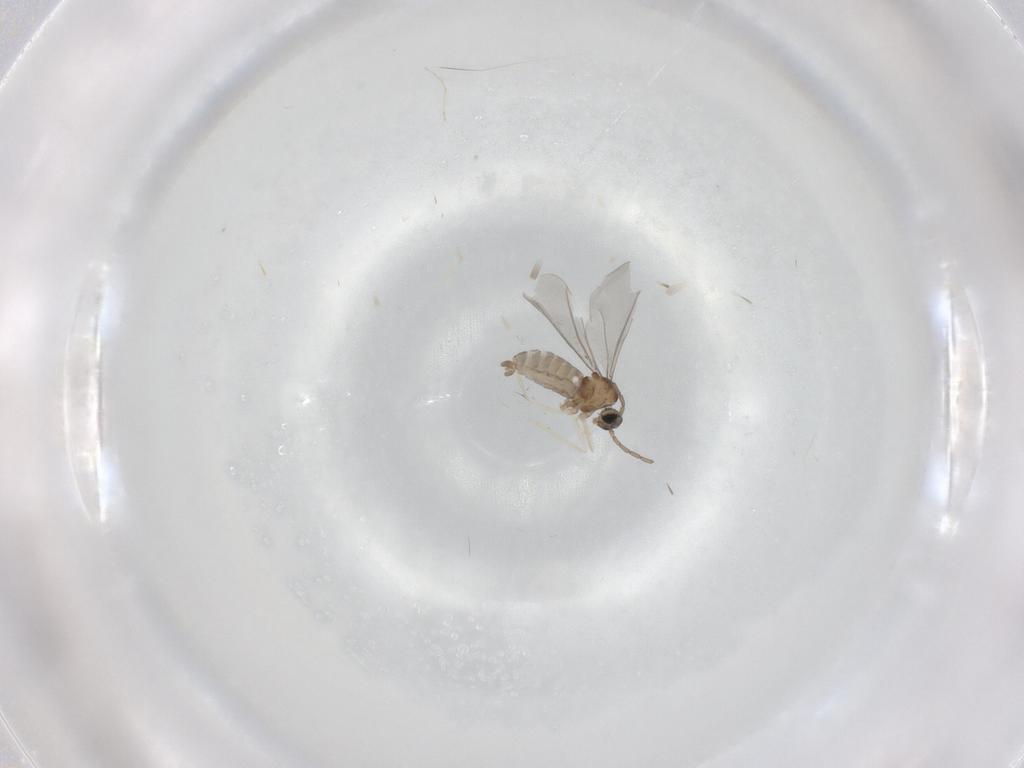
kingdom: Animalia
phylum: Arthropoda
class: Insecta
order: Diptera
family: Cecidomyiidae
